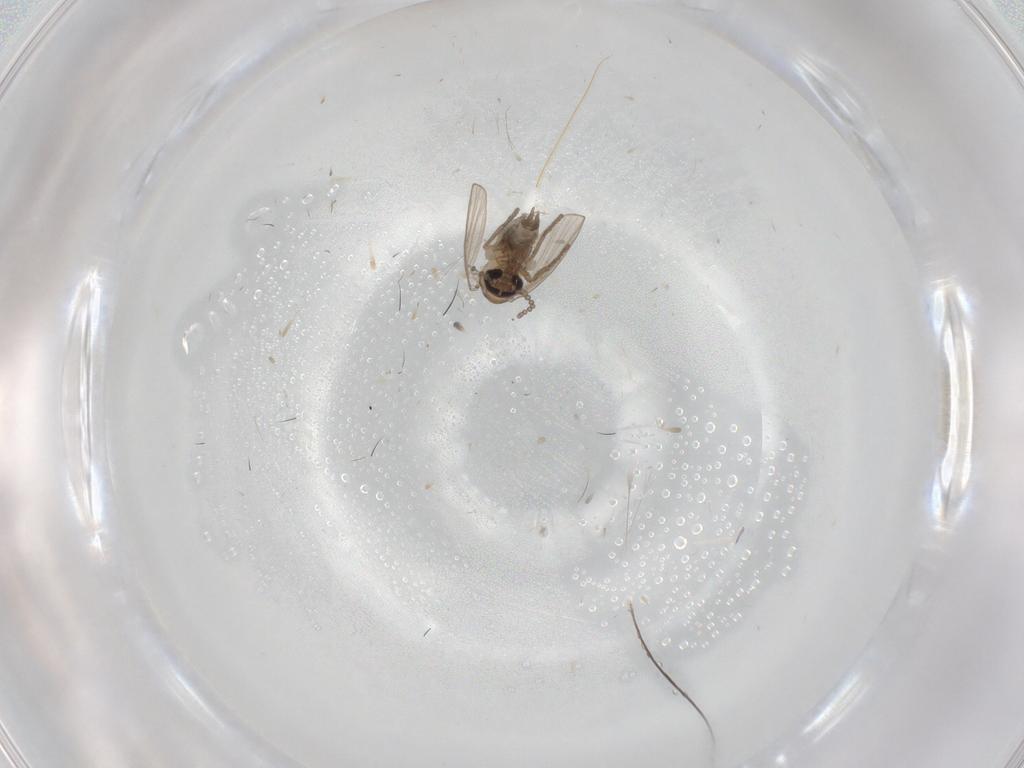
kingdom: Animalia
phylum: Arthropoda
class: Insecta
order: Diptera
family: Psychodidae
